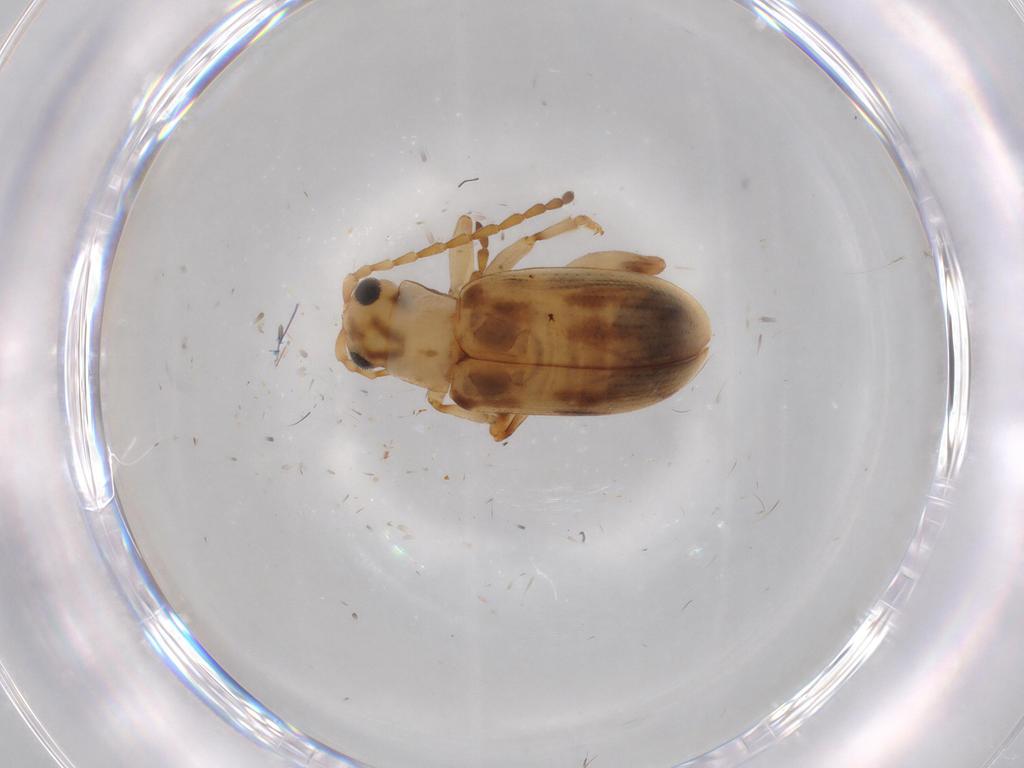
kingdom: Animalia
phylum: Arthropoda
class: Insecta
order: Coleoptera
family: Chrysomelidae
